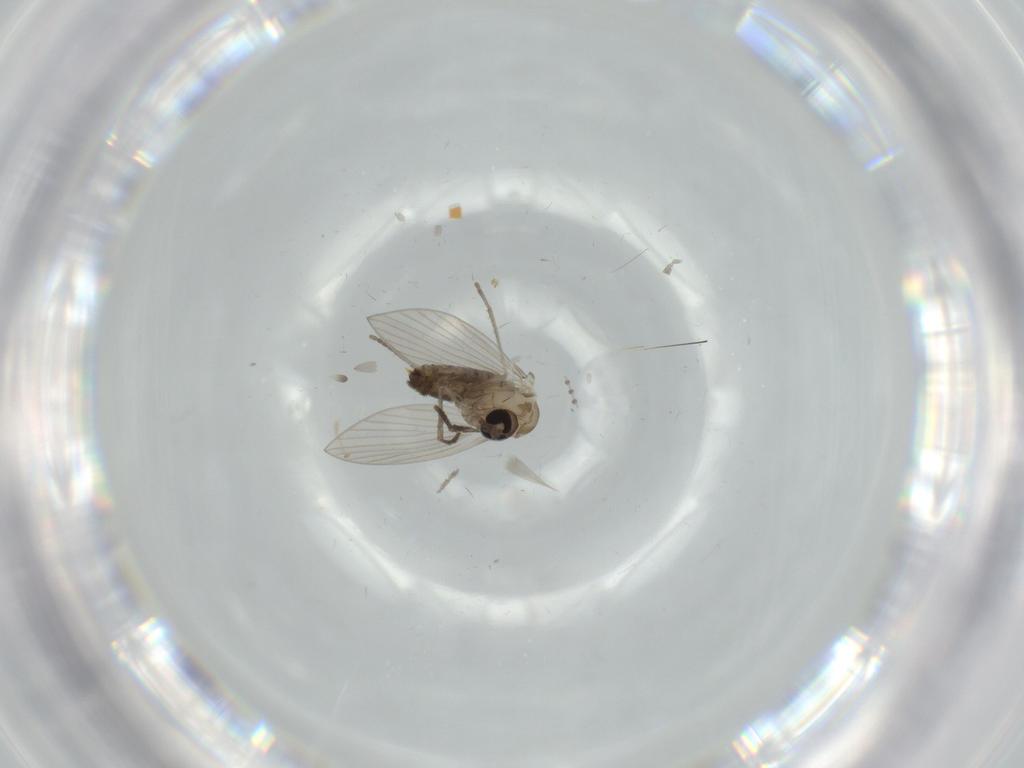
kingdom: Animalia
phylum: Arthropoda
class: Insecta
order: Diptera
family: Psychodidae
